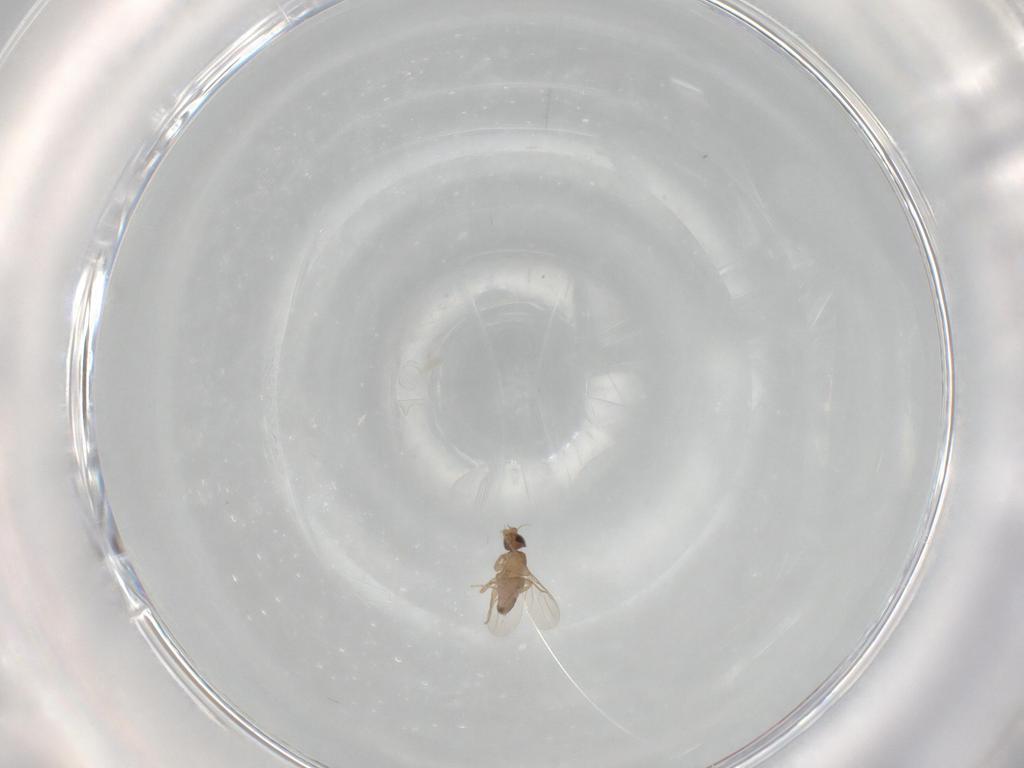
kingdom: Animalia
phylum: Arthropoda
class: Insecta
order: Diptera
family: Phoridae
